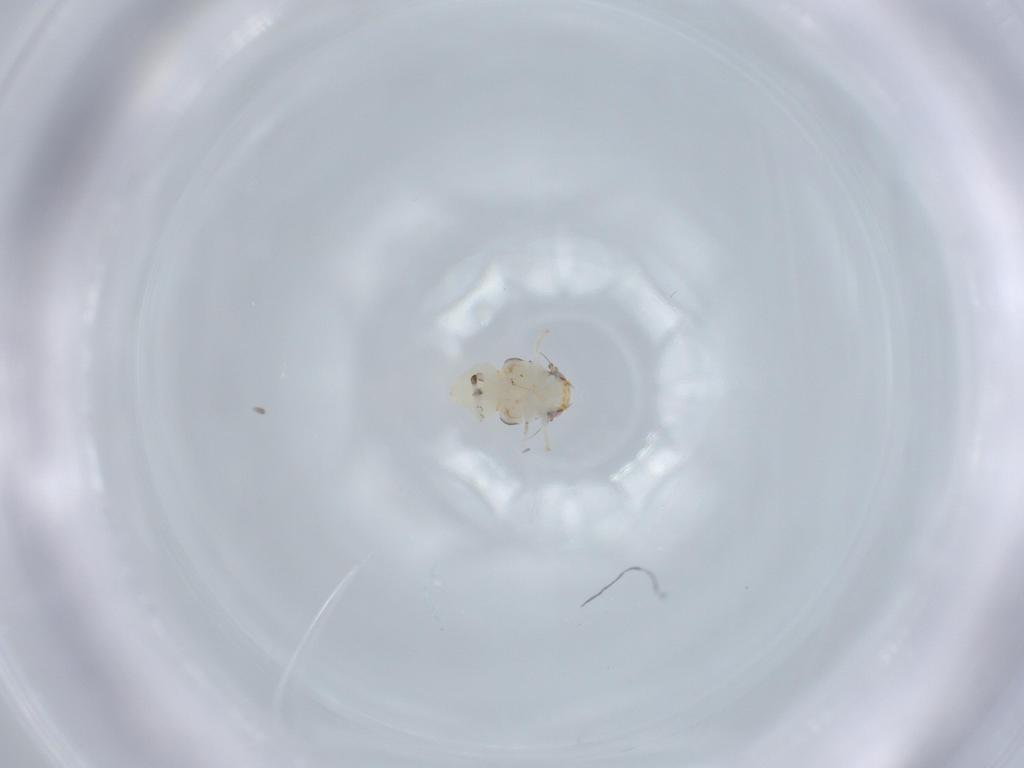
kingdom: Animalia
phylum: Arthropoda
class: Insecta
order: Hemiptera
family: Nogodinidae
